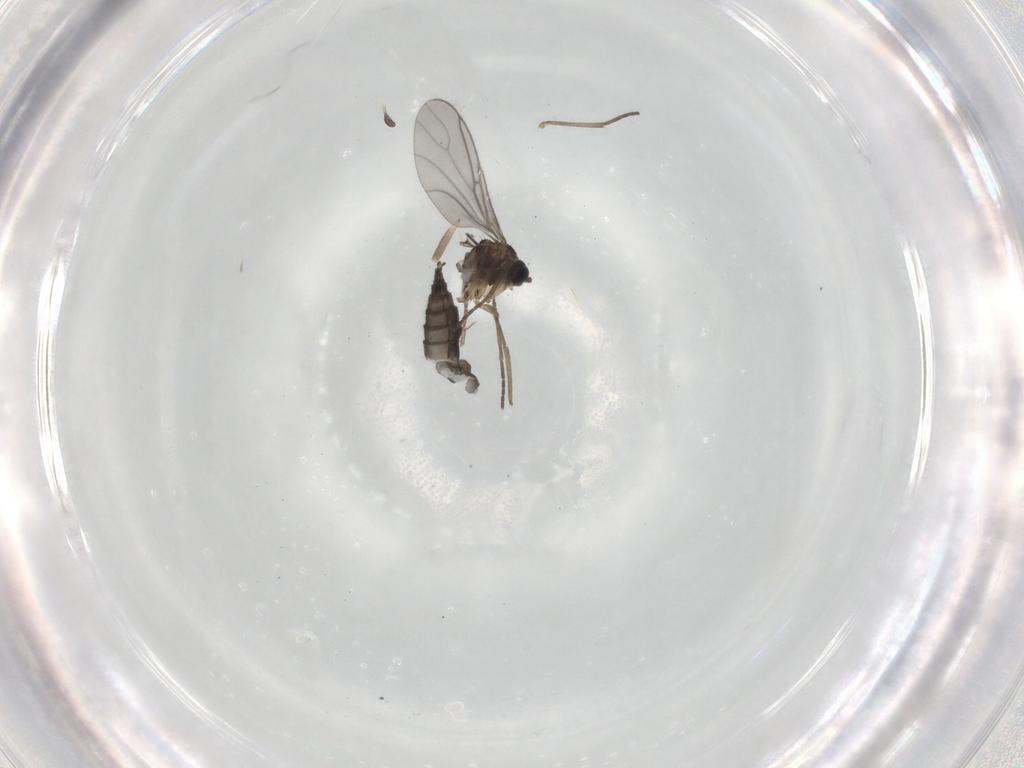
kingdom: Animalia
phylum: Arthropoda
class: Insecta
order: Diptera
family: Sciaridae
